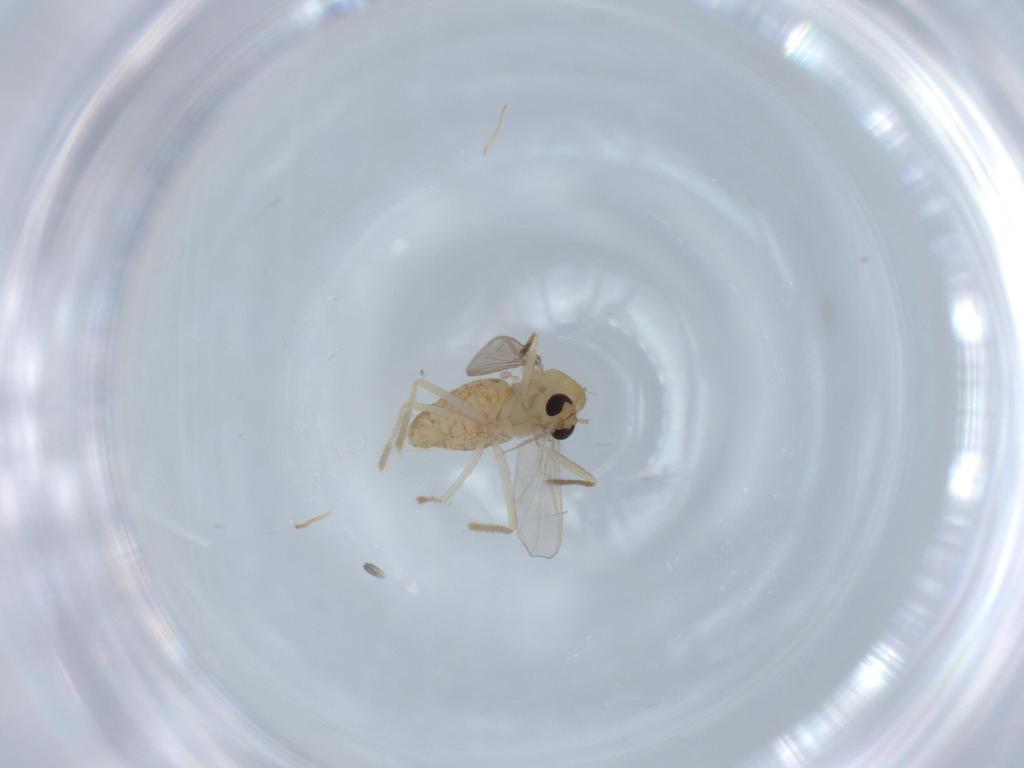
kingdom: Animalia
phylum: Arthropoda
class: Insecta
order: Diptera
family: Chironomidae
